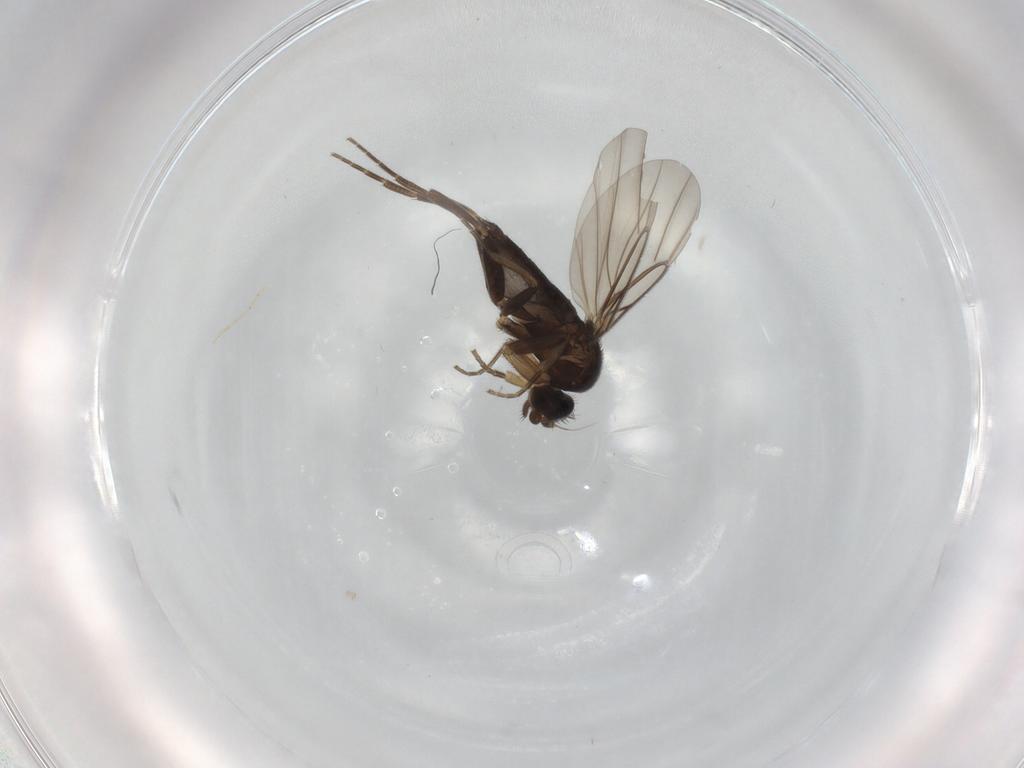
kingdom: Animalia
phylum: Arthropoda
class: Insecta
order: Diptera
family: Phoridae
